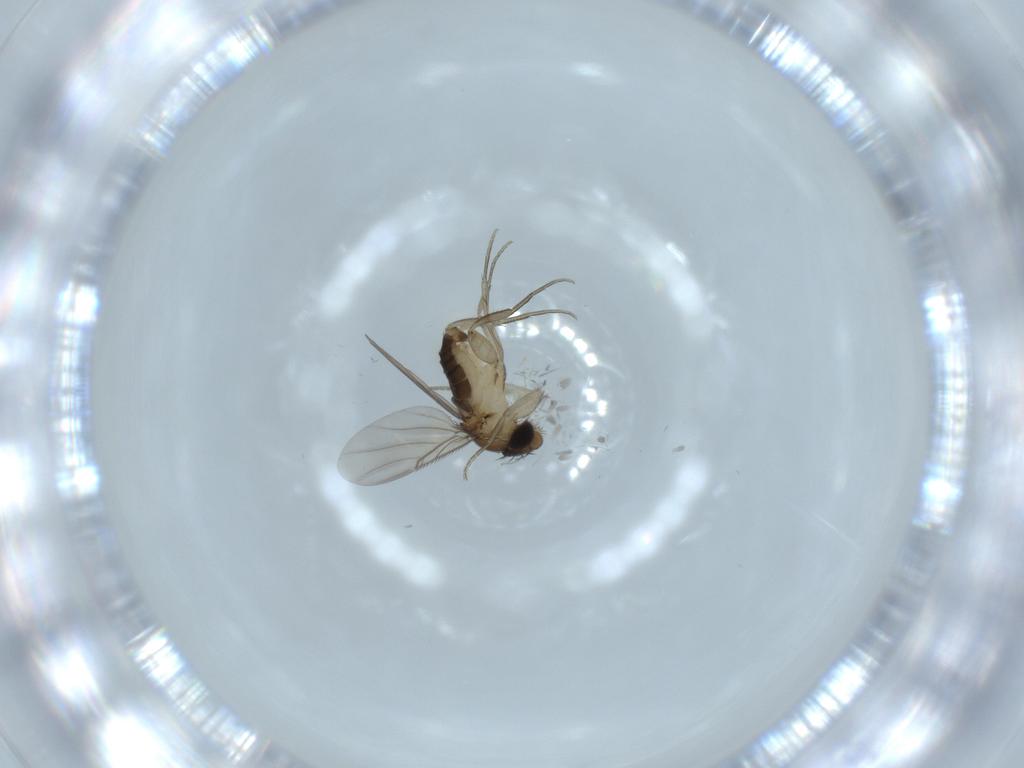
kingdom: Animalia
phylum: Arthropoda
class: Insecta
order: Diptera
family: Phoridae
